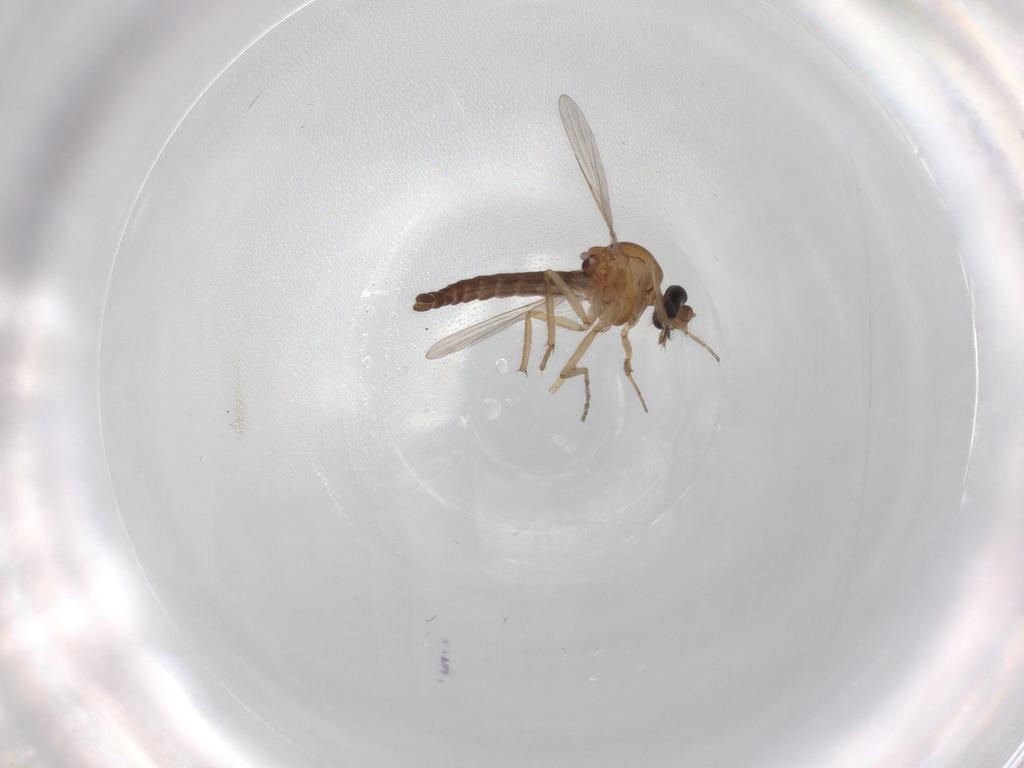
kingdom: Animalia
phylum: Arthropoda
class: Insecta
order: Diptera
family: Ceratopogonidae
